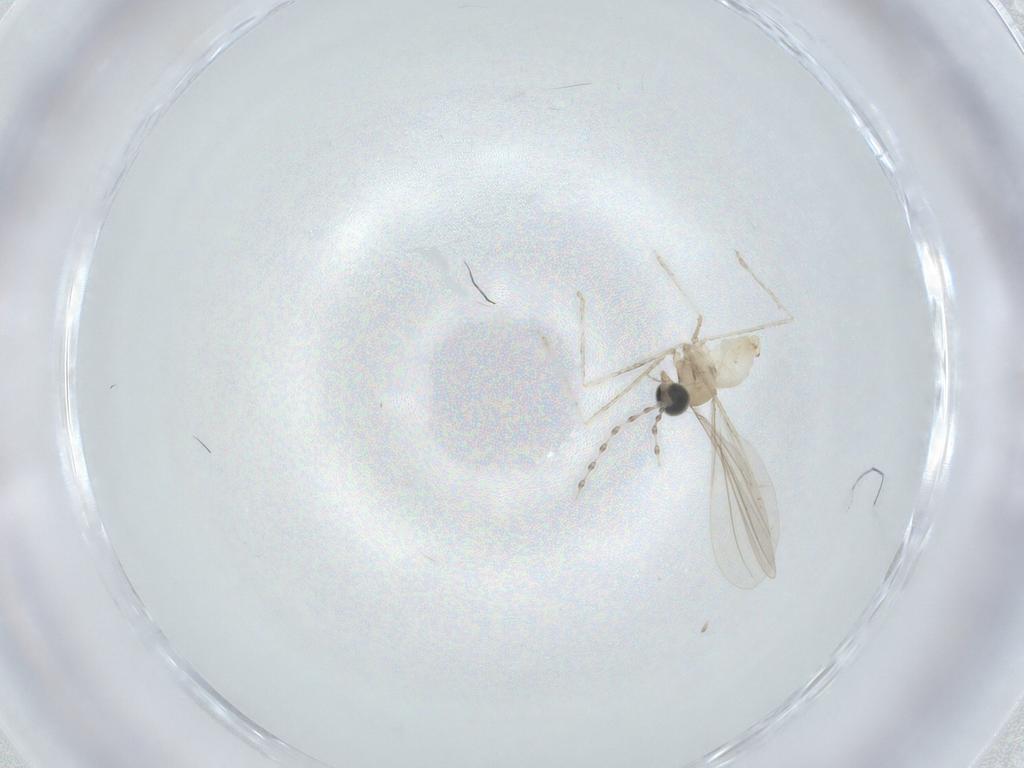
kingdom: Animalia
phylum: Arthropoda
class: Insecta
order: Diptera
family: Cecidomyiidae
